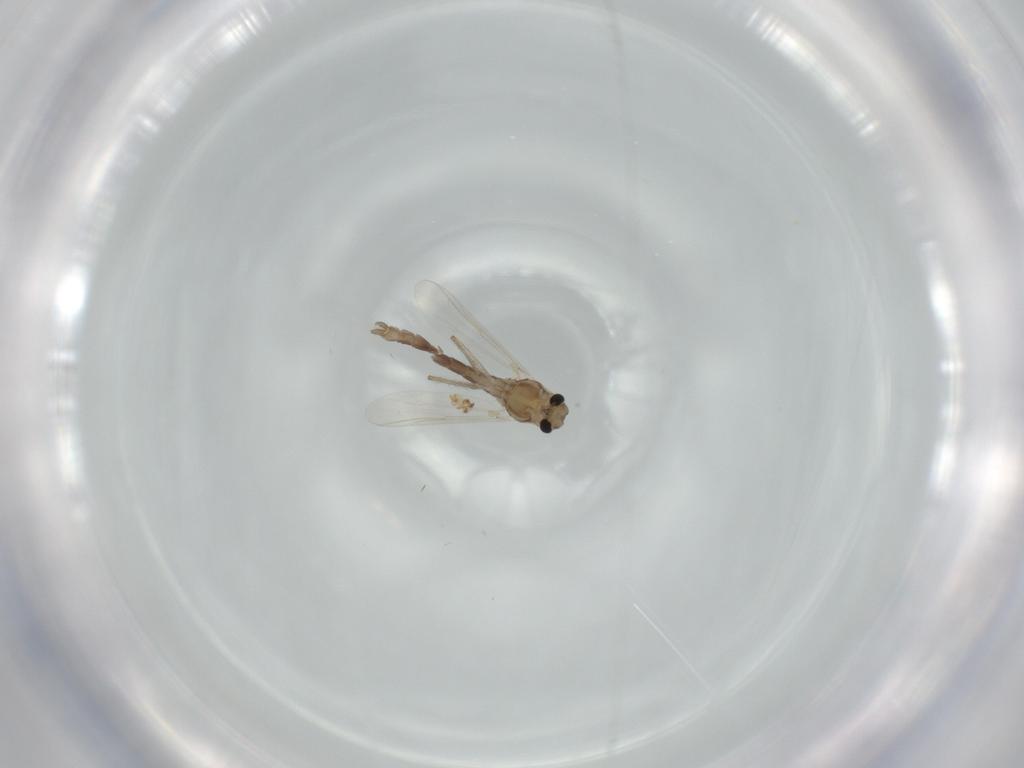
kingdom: Animalia
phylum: Arthropoda
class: Insecta
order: Diptera
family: Chironomidae
